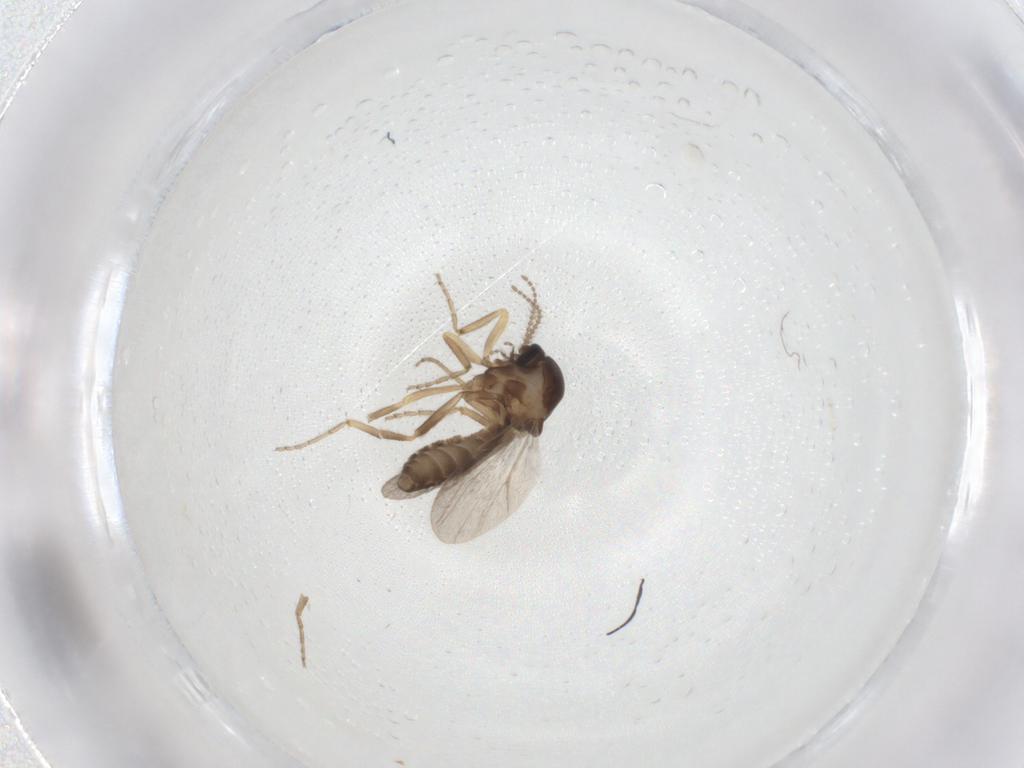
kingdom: Animalia
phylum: Arthropoda
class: Insecta
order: Diptera
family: Ceratopogonidae
